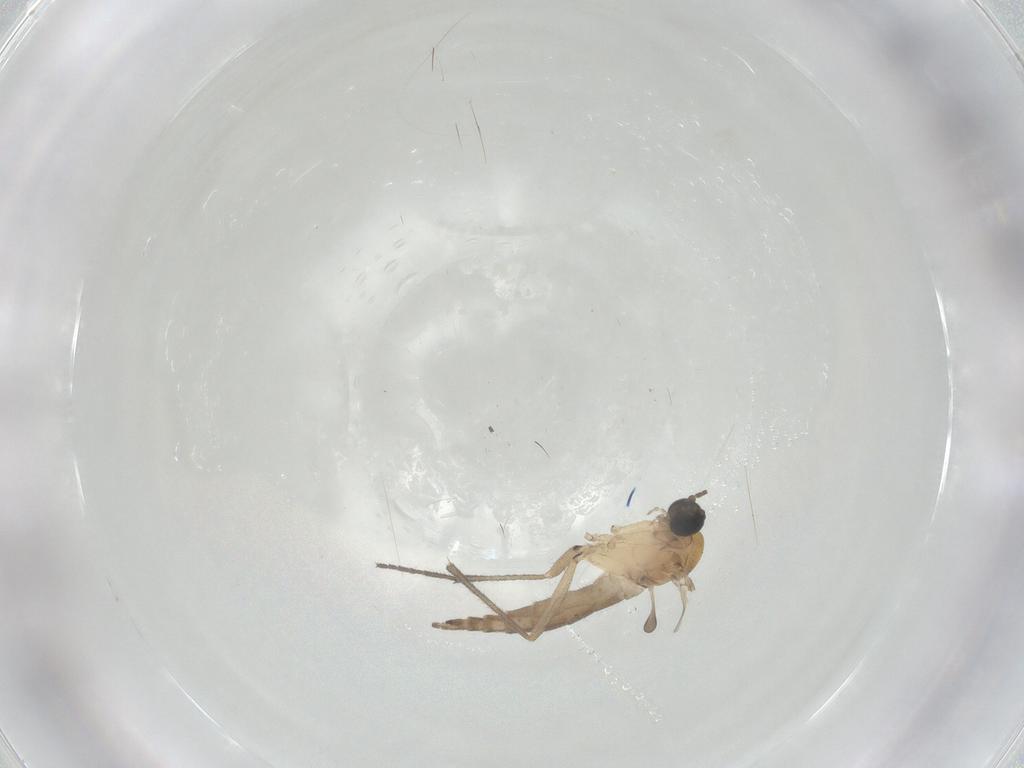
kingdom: Animalia
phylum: Arthropoda
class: Insecta
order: Diptera
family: Sciaridae
